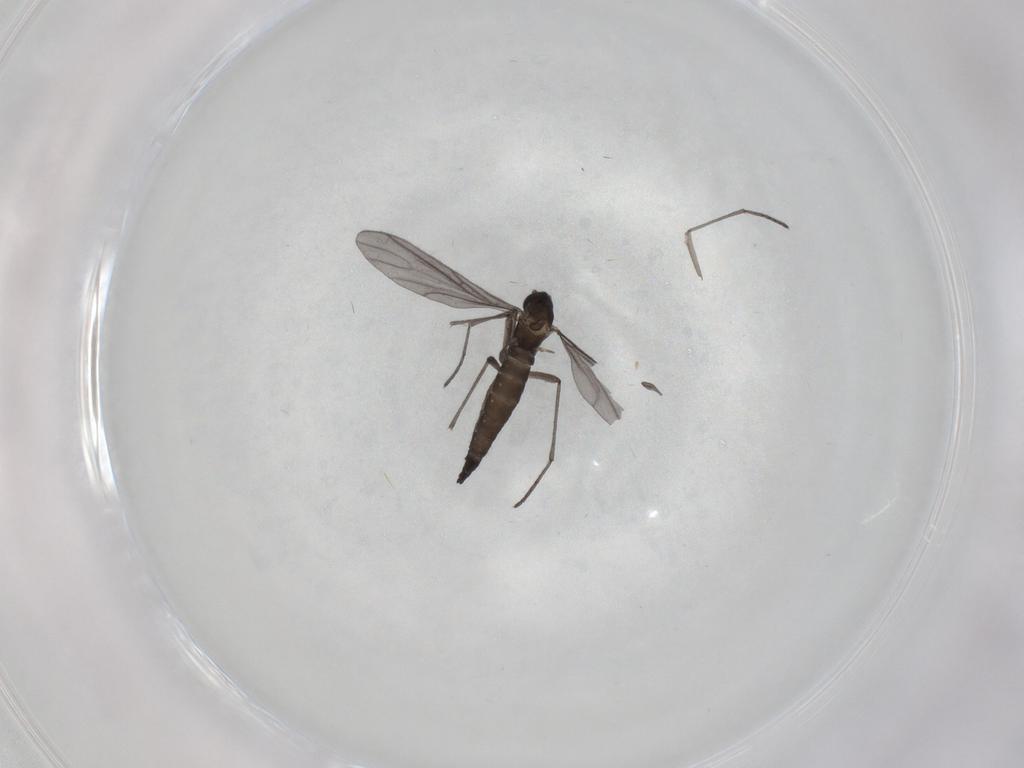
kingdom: Animalia
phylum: Arthropoda
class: Insecta
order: Diptera
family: Sciaridae
